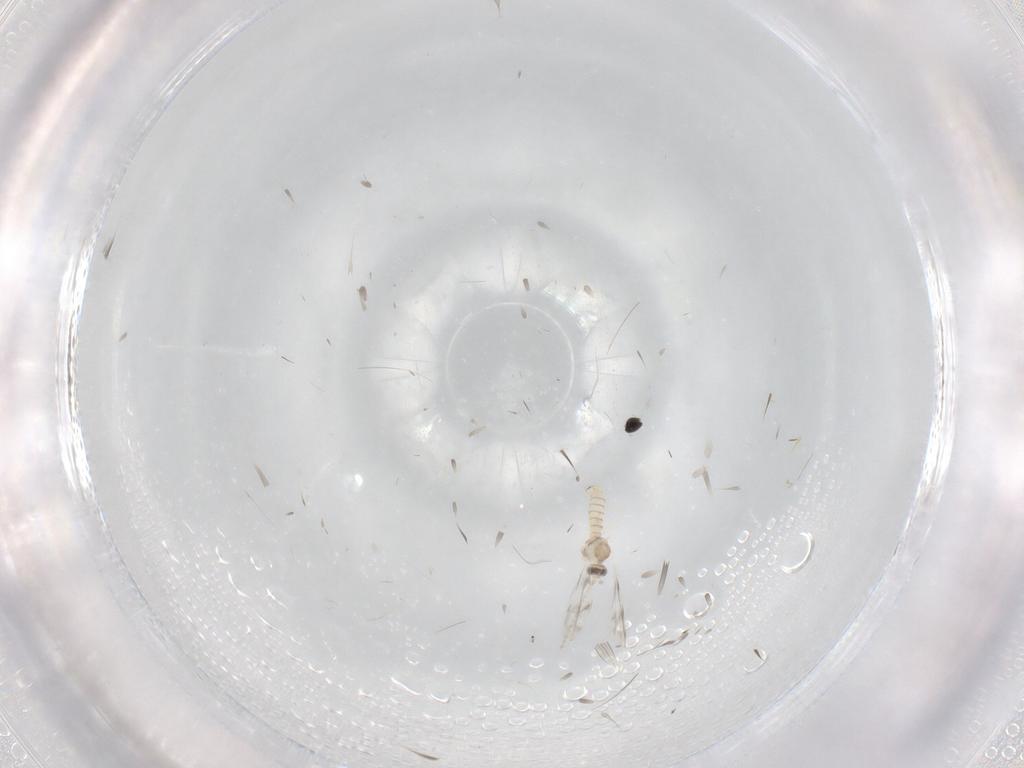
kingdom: Animalia
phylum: Arthropoda
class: Insecta
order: Diptera
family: Dolichopodidae
